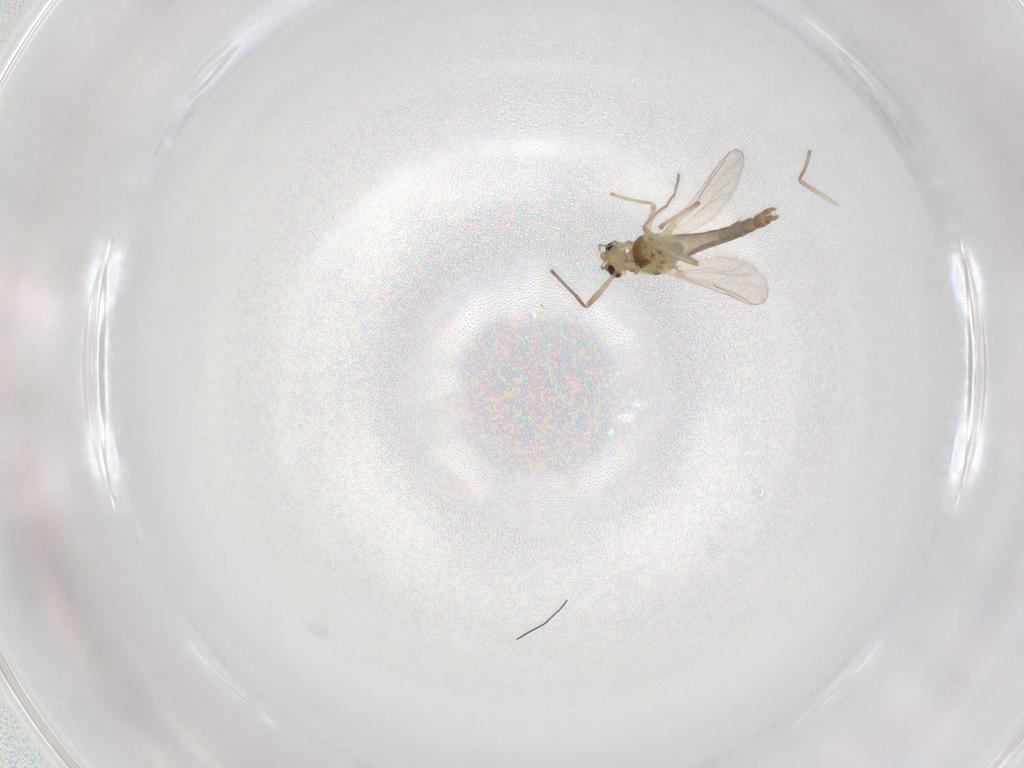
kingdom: Animalia
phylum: Arthropoda
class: Insecta
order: Diptera
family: Chironomidae
